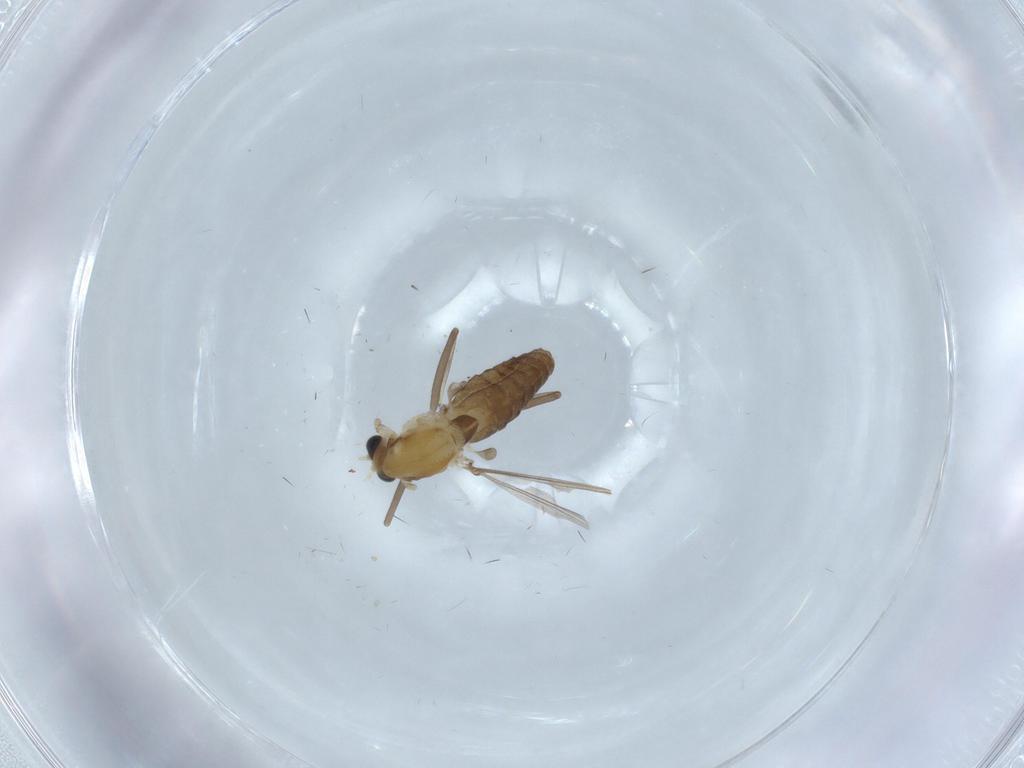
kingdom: Animalia
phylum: Arthropoda
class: Insecta
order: Diptera
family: Chironomidae
